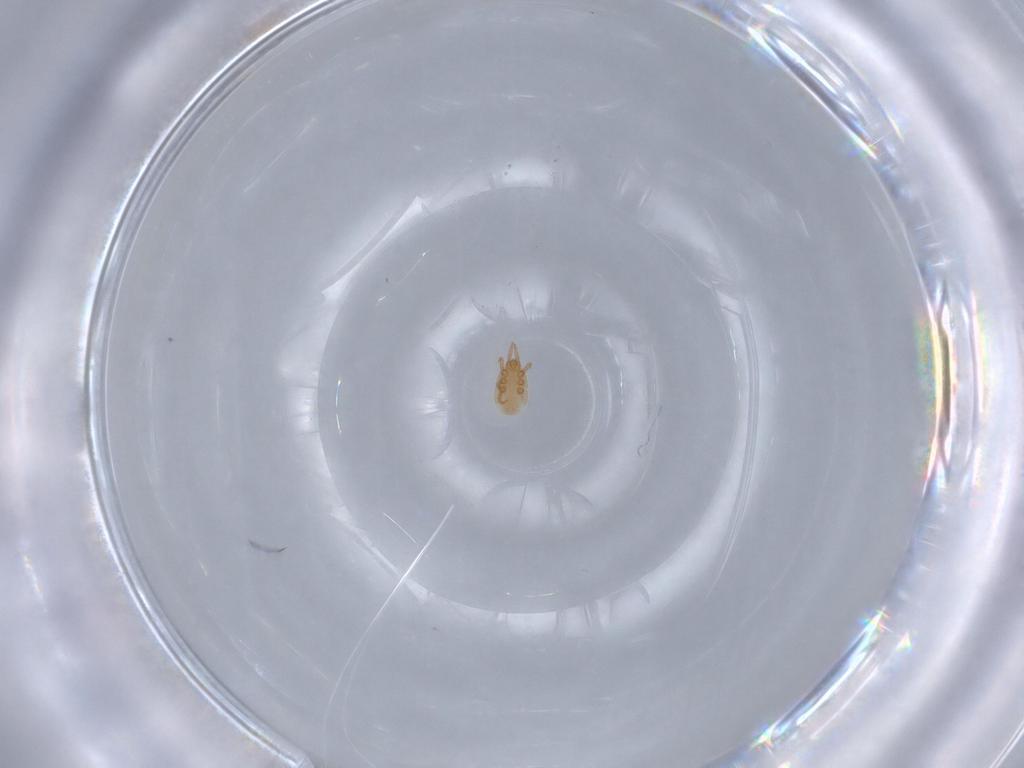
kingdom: Animalia
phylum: Arthropoda
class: Arachnida
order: Mesostigmata
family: Dinychidae
